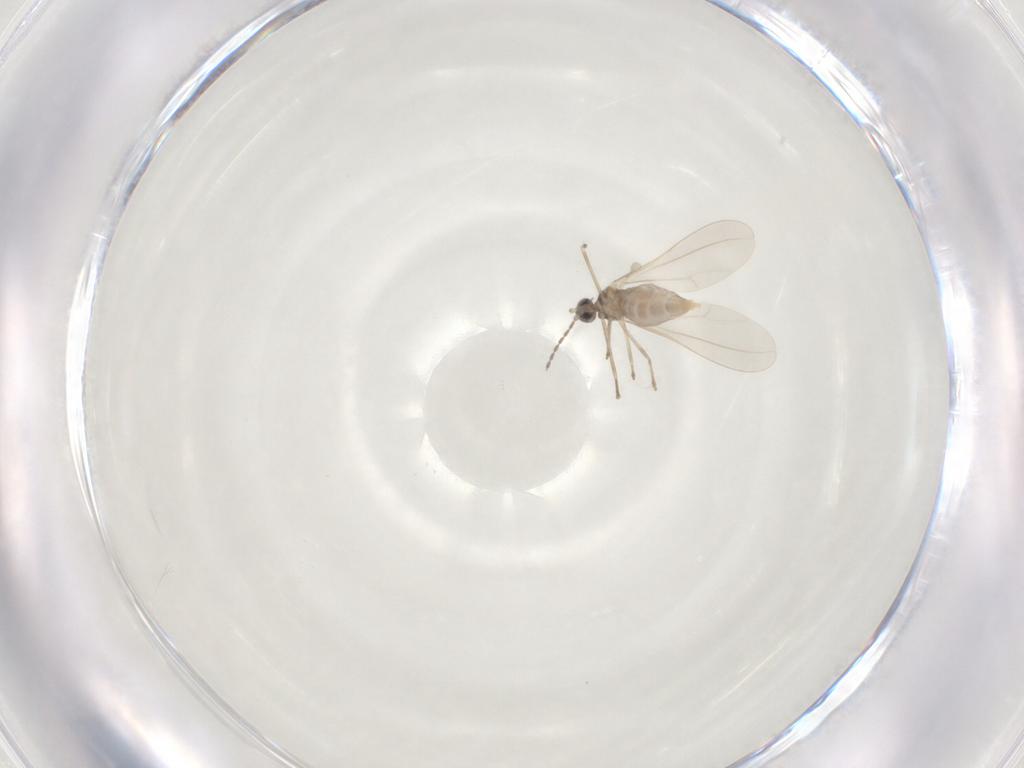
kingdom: Animalia
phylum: Arthropoda
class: Insecta
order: Diptera
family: Cecidomyiidae
